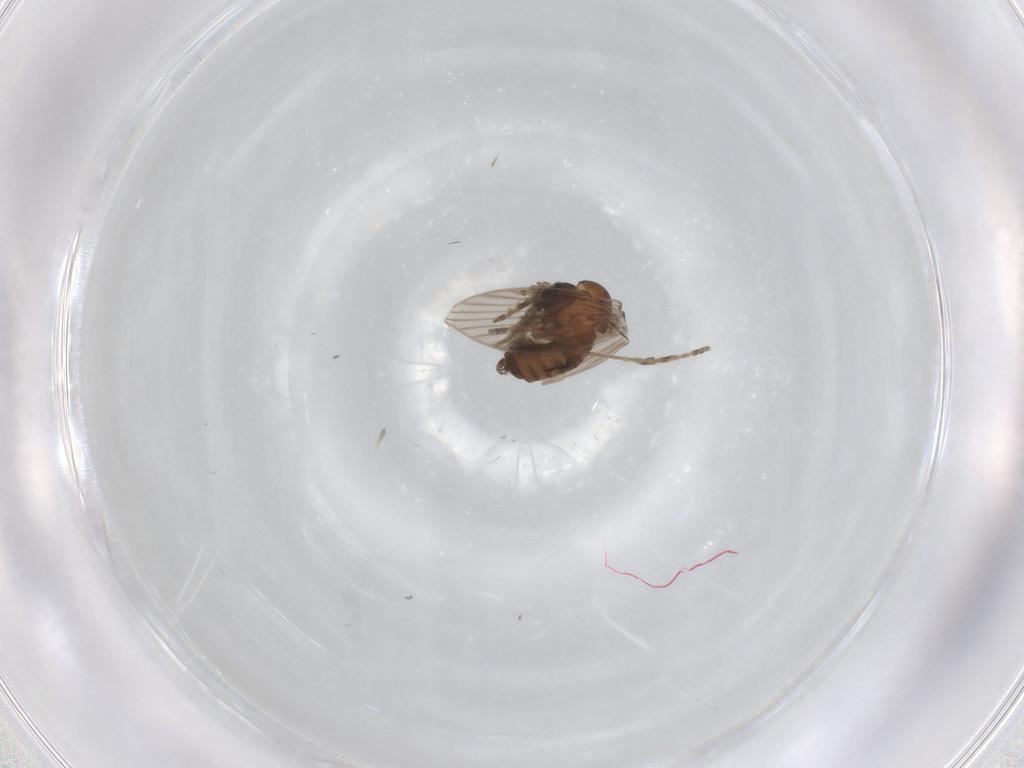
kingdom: Animalia
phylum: Arthropoda
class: Insecta
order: Diptera
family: Psychodidae
